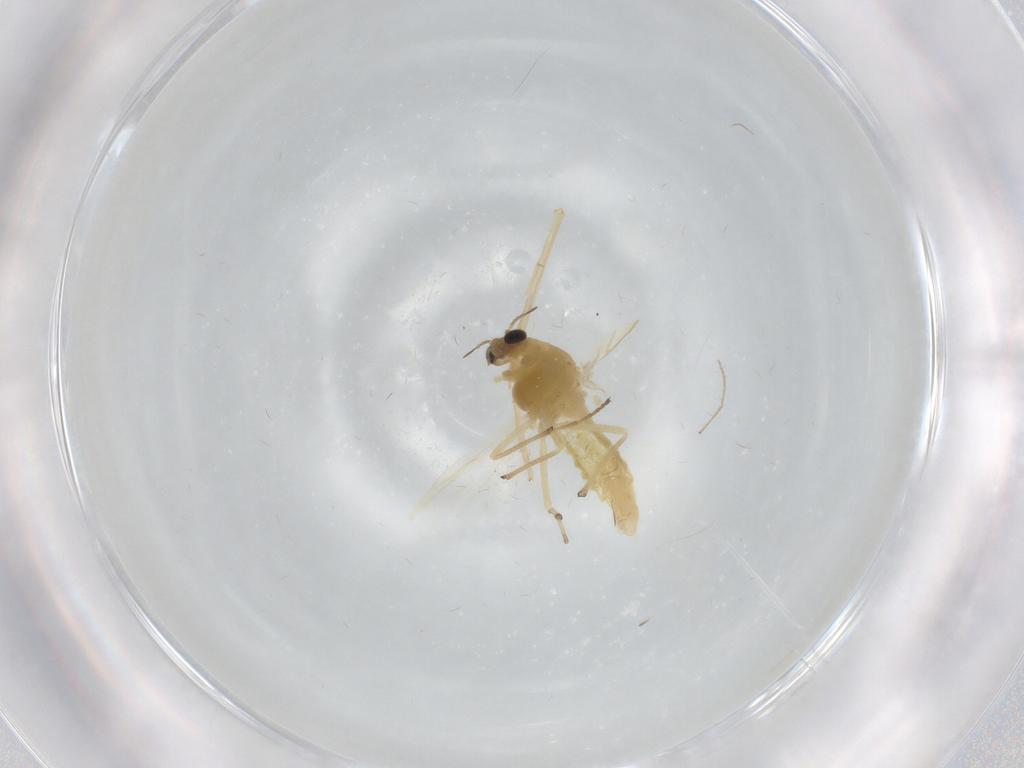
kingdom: Animalia
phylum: Arthropoda
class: Insecta
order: Diptera
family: Chironomidae
